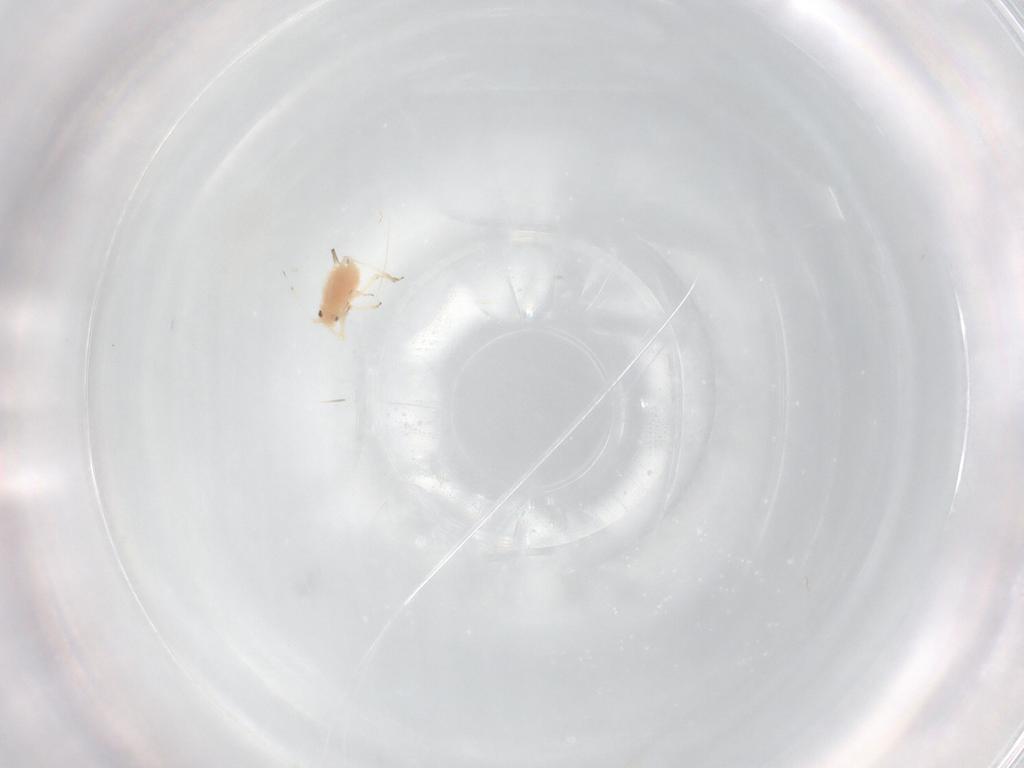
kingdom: Animalia
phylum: Arthropoda
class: Insecta
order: Hemiptera
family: Aphididae
